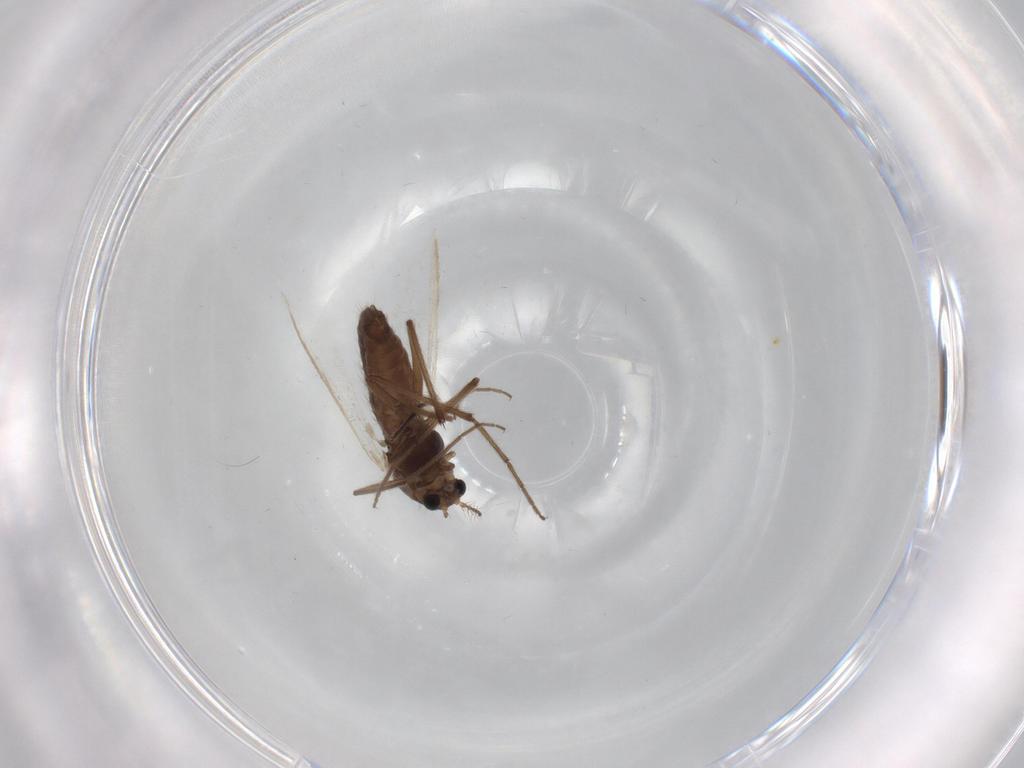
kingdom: Animalia
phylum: Arthropoda
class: Insecta
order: Diptera
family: Chironomidae
